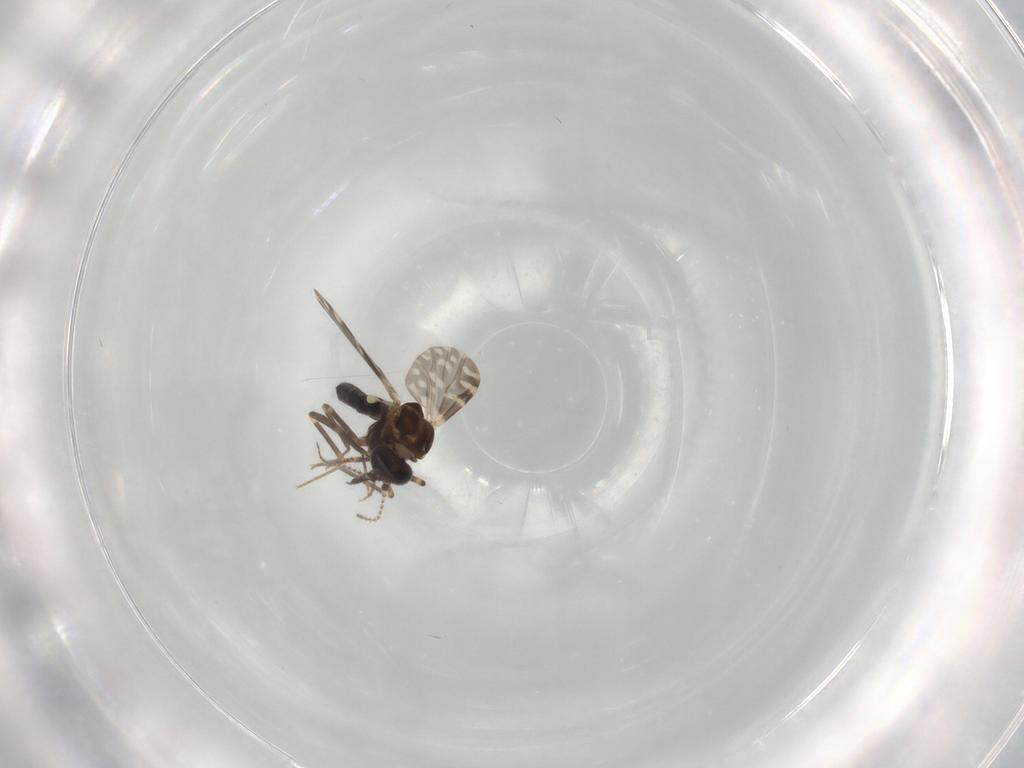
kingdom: Animalia
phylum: Arthropoda
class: Insecta
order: Diptera
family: Ceratopogonidae
